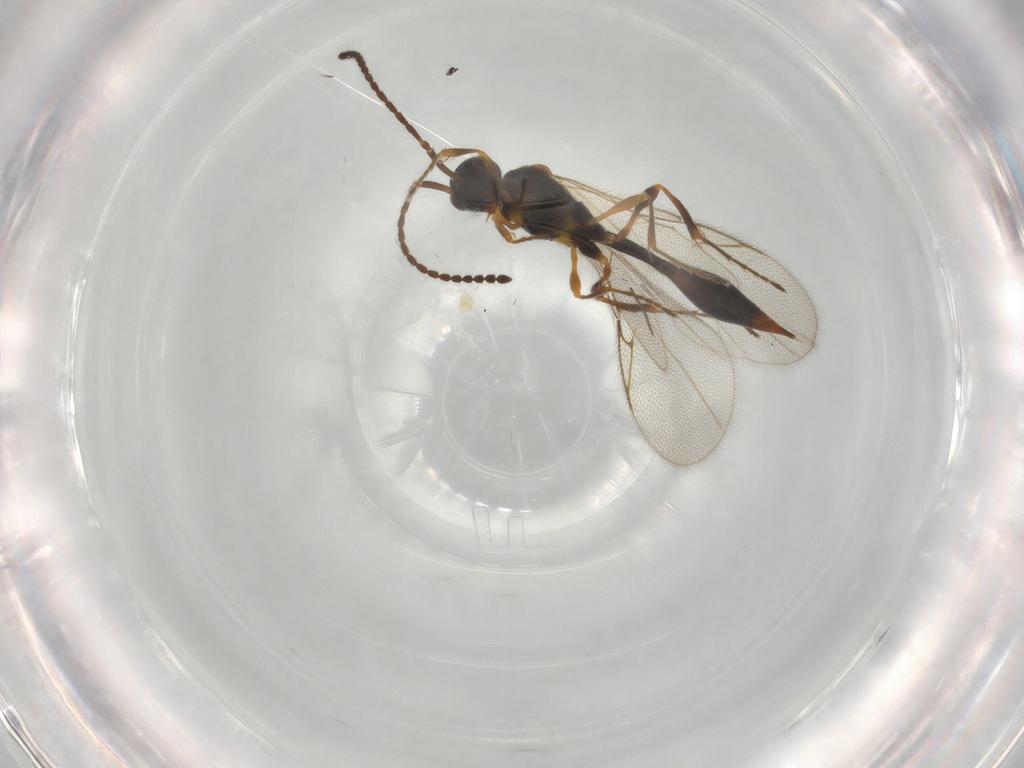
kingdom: Animalia
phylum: Arthropoda
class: Insecta
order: Hymenoptera
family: Diapriidae
